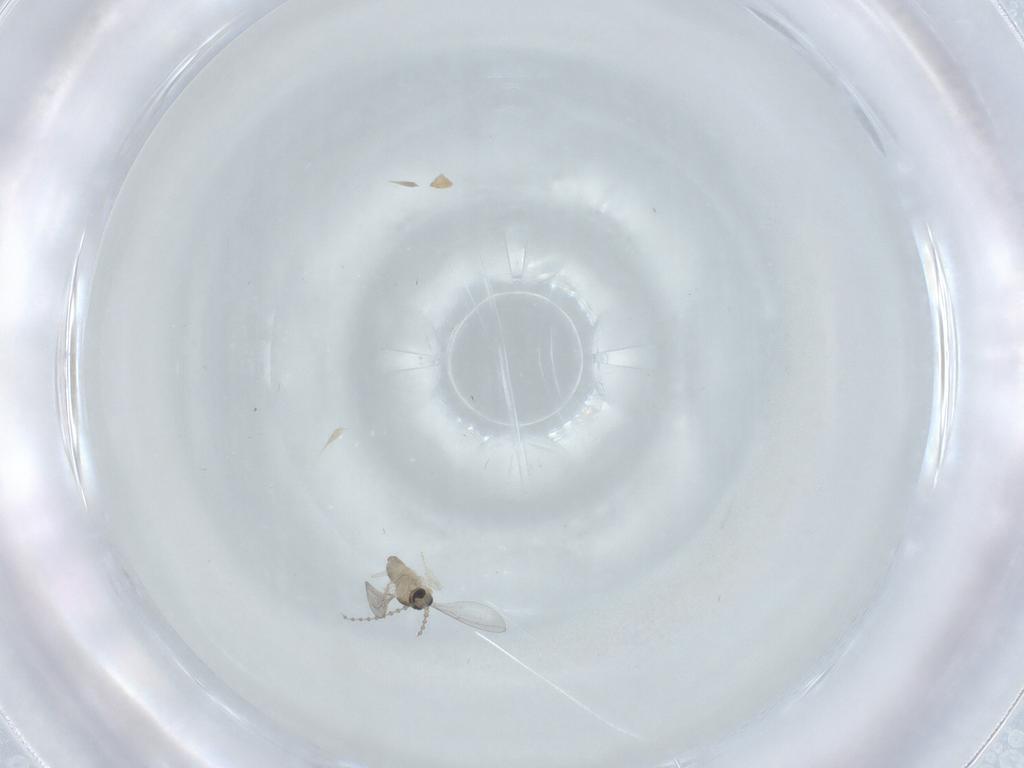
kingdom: Animalia
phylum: Arthropoda
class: Insecta
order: Diptera
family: Cecidomyiidae
